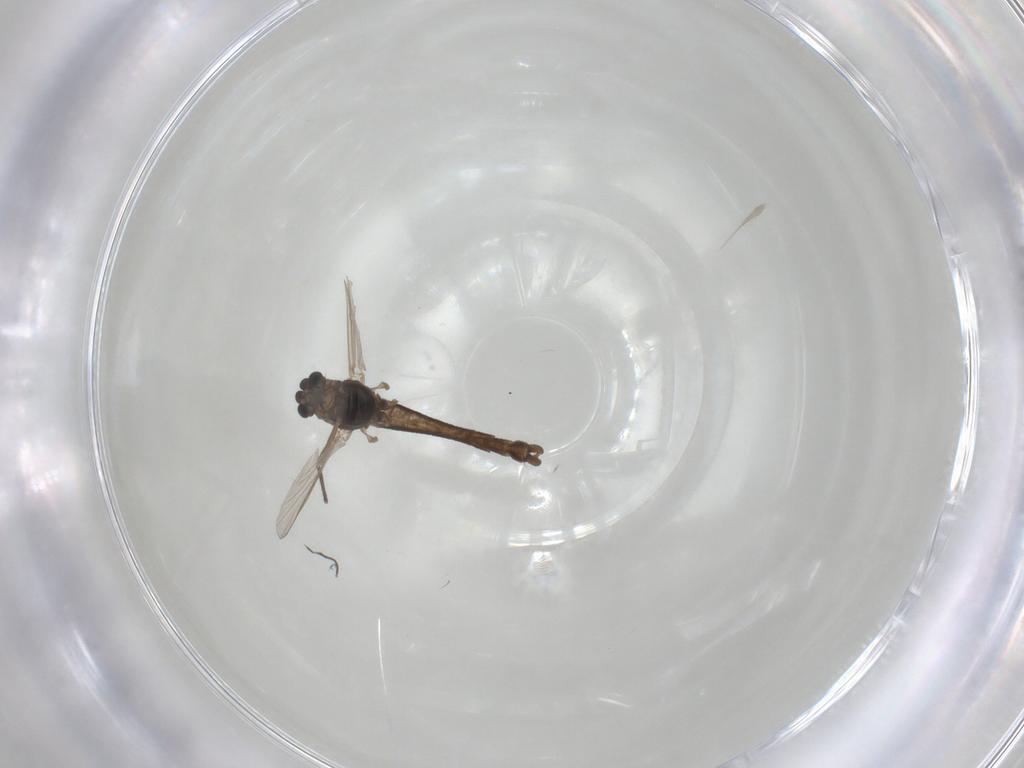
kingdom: Animalia
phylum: Arthropoda
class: Insecta
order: Diptera
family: Chironomidae
